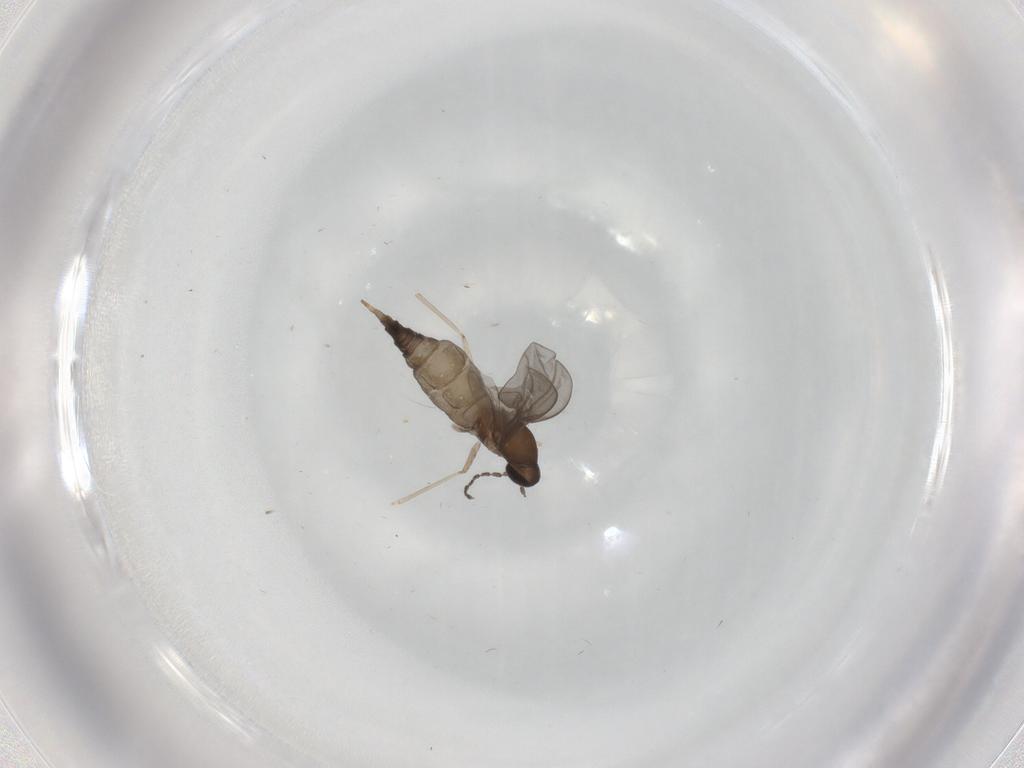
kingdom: Animalia
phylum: Arthropoda
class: Insecta
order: Diptera
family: Cecidomyiidae
